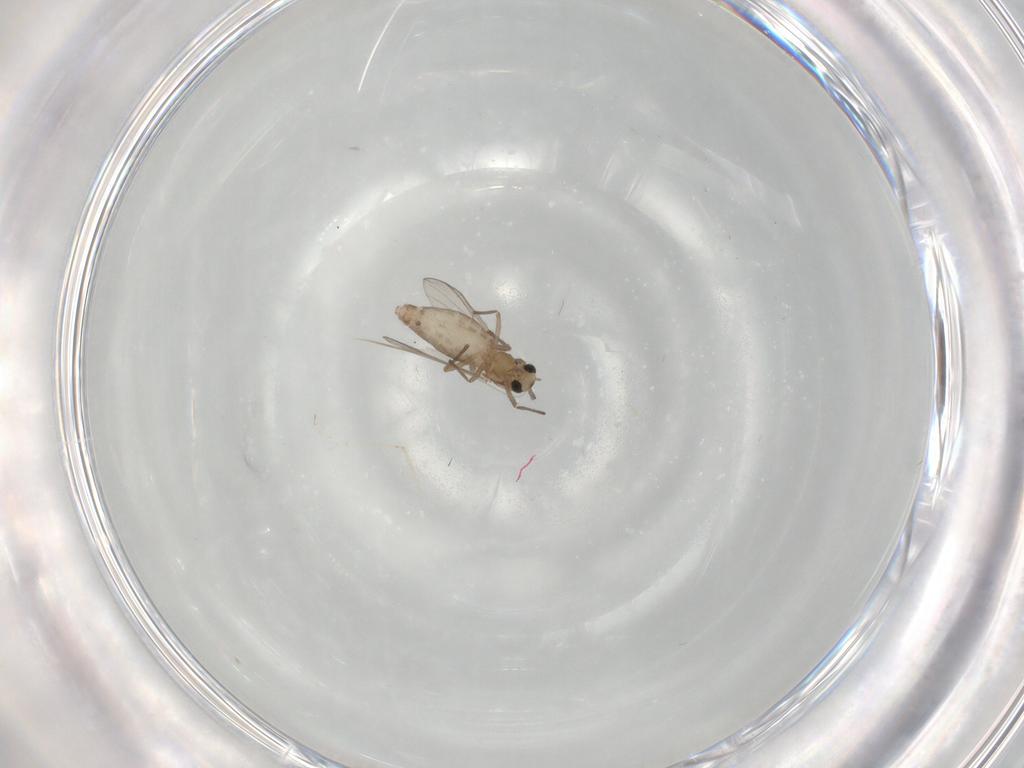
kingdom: Animalia
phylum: Arthropoda
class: Insecta
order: Diptera
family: Chironomidae
